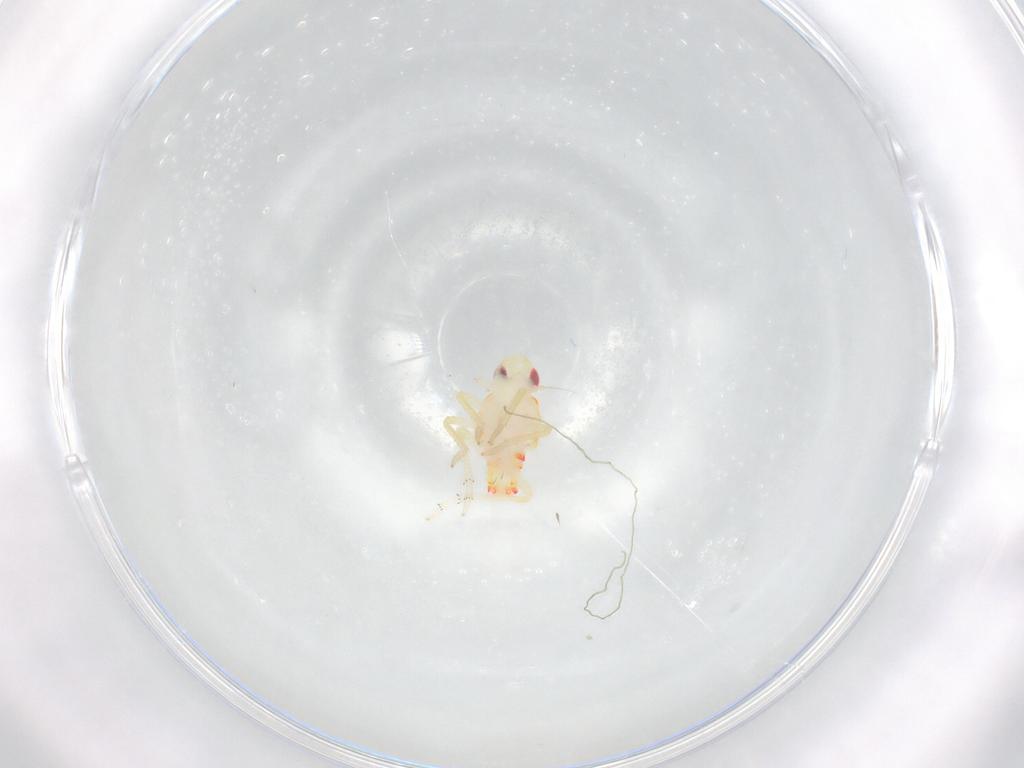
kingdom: Animalia
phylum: Arthropoda
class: Insecta
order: Hemiptera
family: Tropiduchidae
